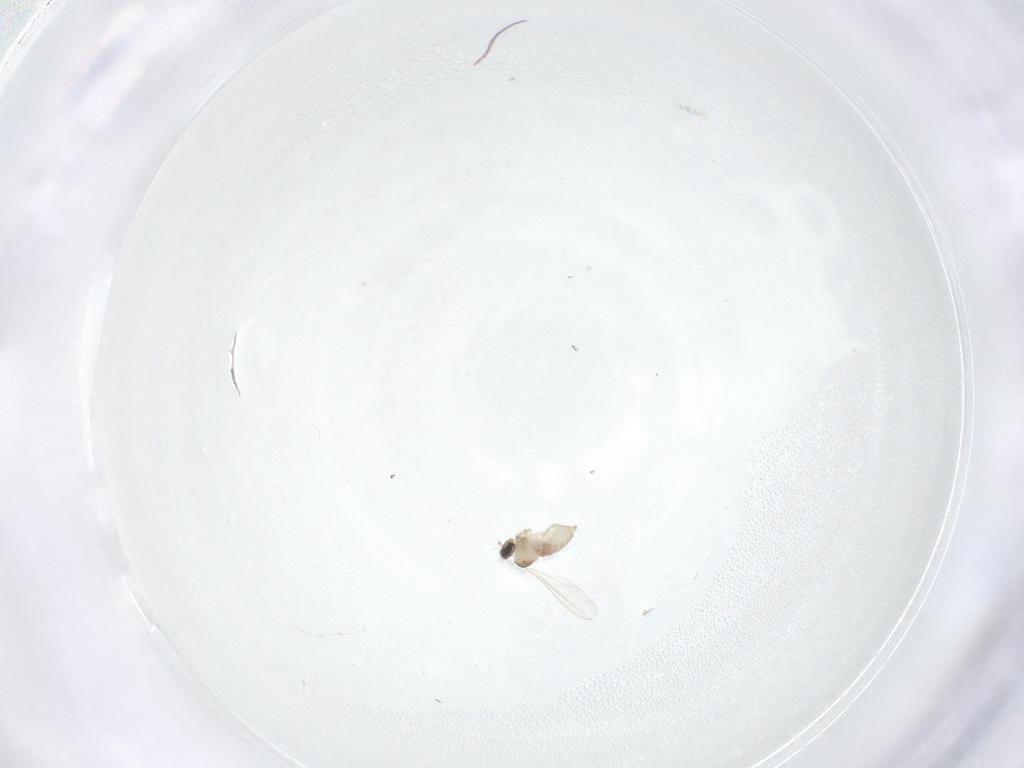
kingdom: Animalia
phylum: Arthropoda
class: Insecta
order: Diptera
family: Cecidomyiidae
